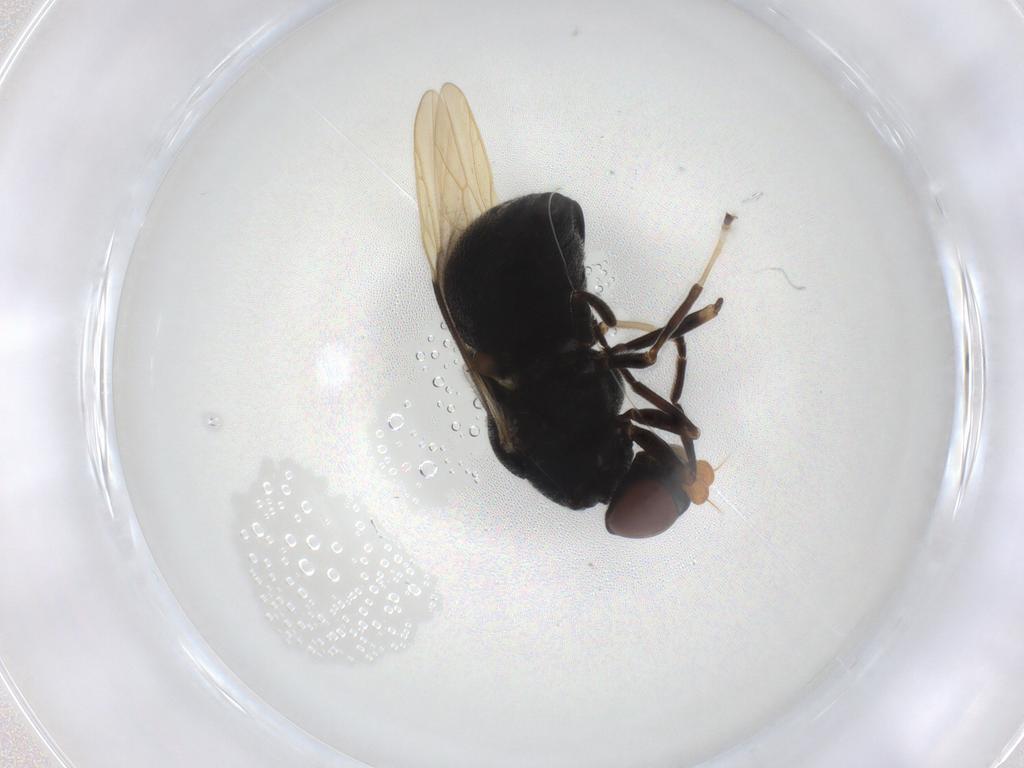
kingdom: Animalia
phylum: Arthropoda
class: Insecta
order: Diptera
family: Stratiomyidae
